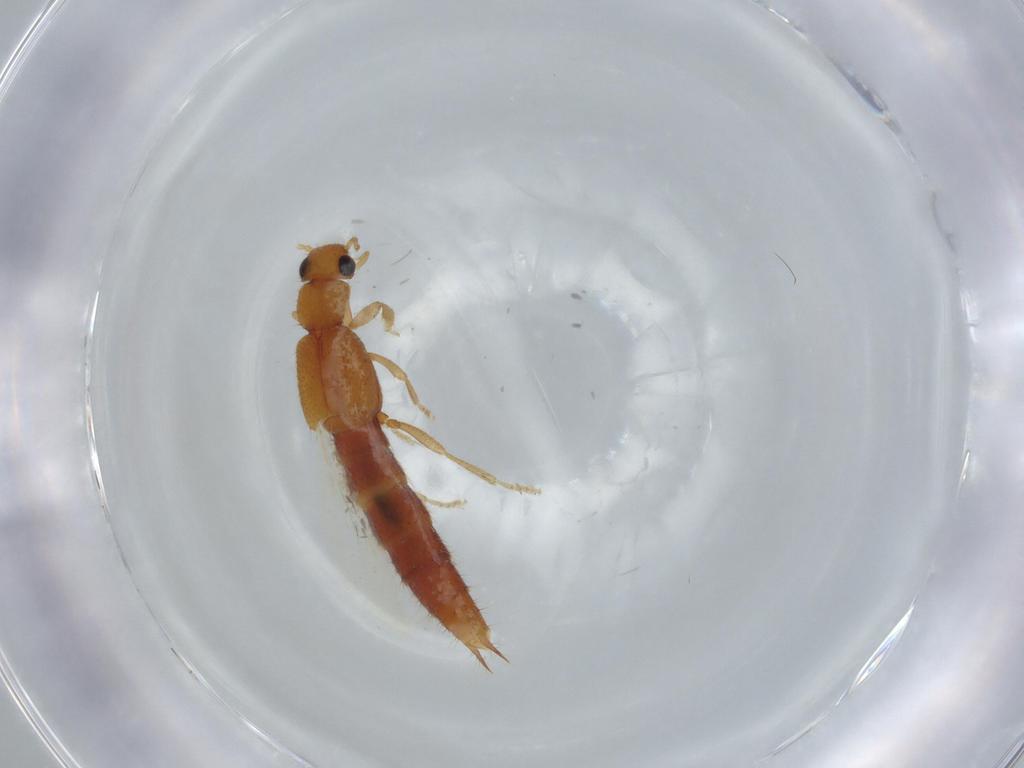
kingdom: Animalia
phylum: Arthropoda
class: Insecta
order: Coleoptera
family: Staphylinidae
